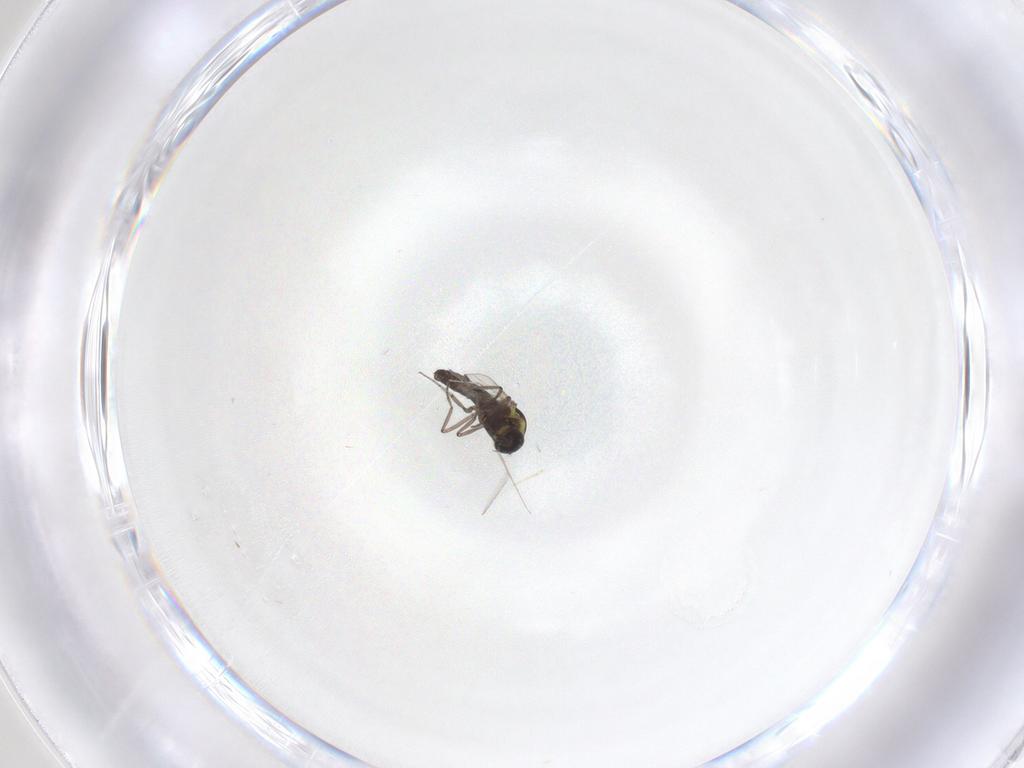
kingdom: Animalia
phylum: Arthropoda
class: Insecta
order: Diptera
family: Ceratopogonidae
